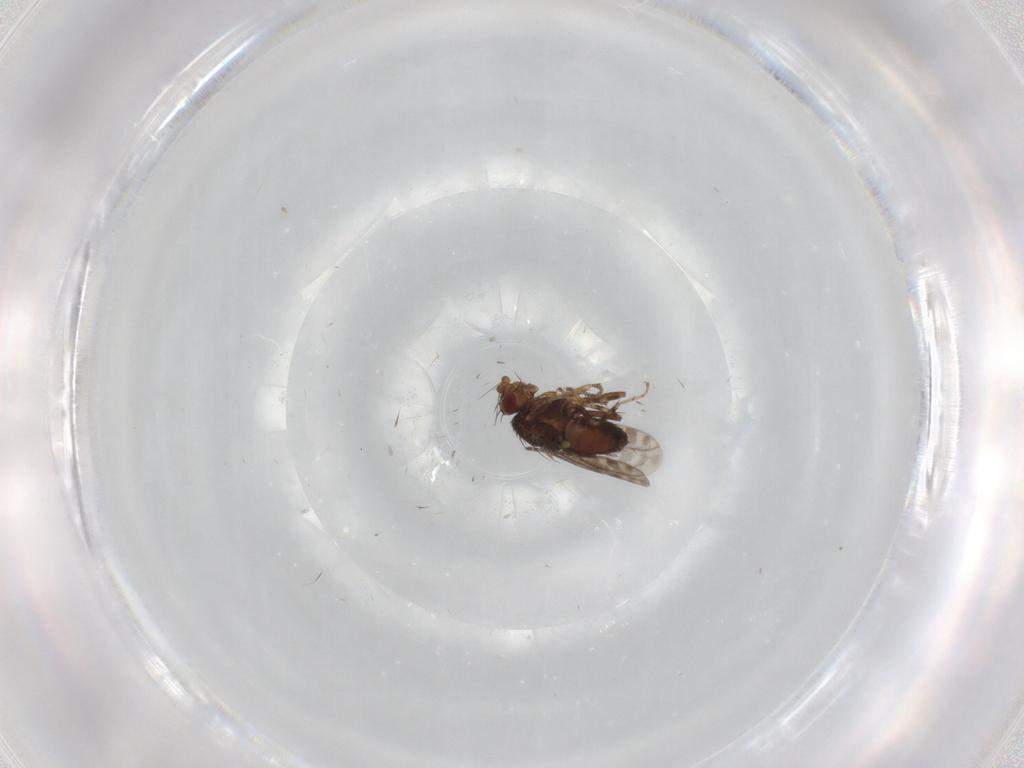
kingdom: Animalia
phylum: Arthropoda
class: Insecta
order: Diptera
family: Sphaeroceridae
